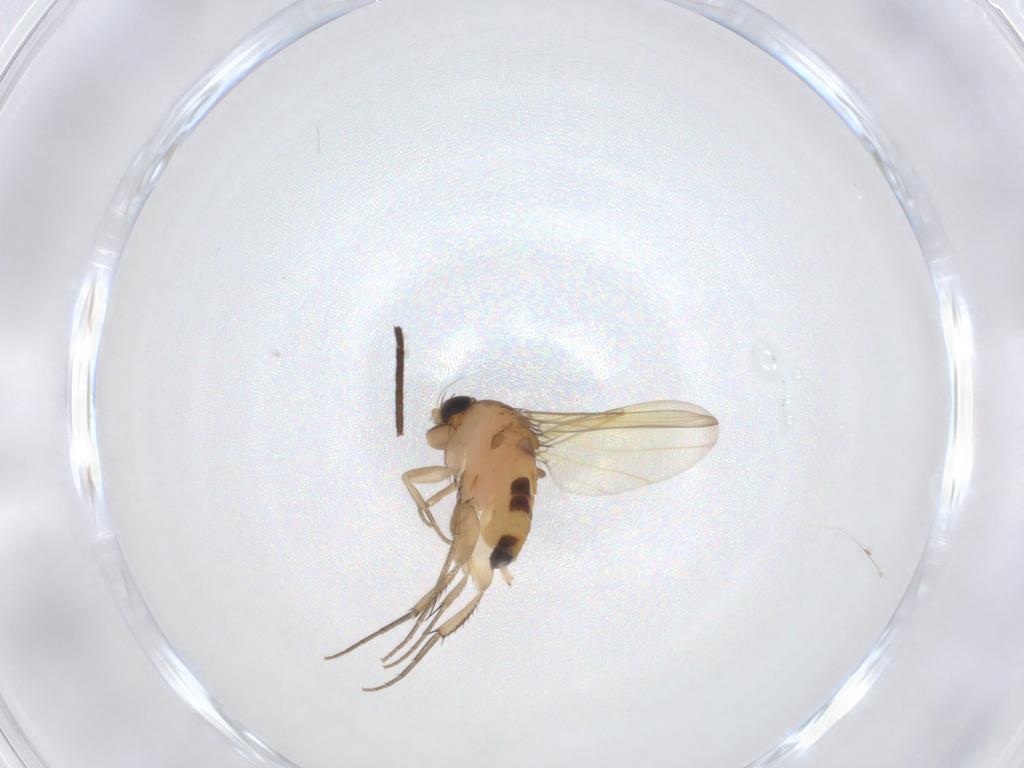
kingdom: Animalia
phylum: Arthropoda
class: Insecta
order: Diptera
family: Phoridae
